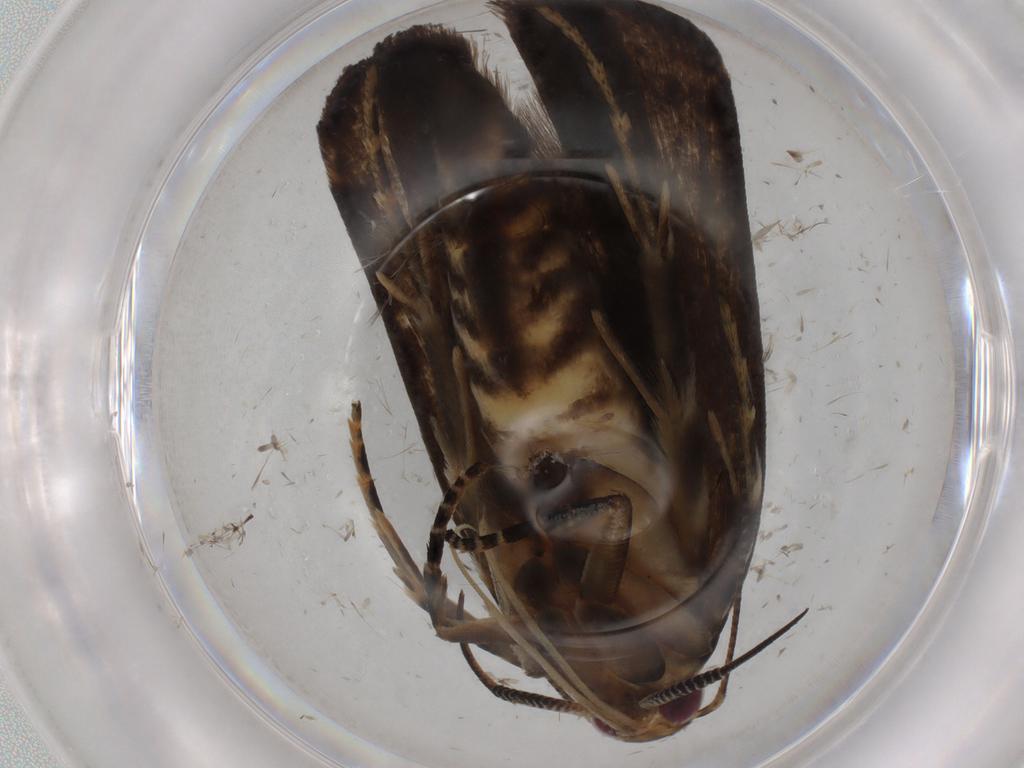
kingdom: Animalia
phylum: Arthropoda
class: Insecta
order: Lepidoptera
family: Gelechiidae
